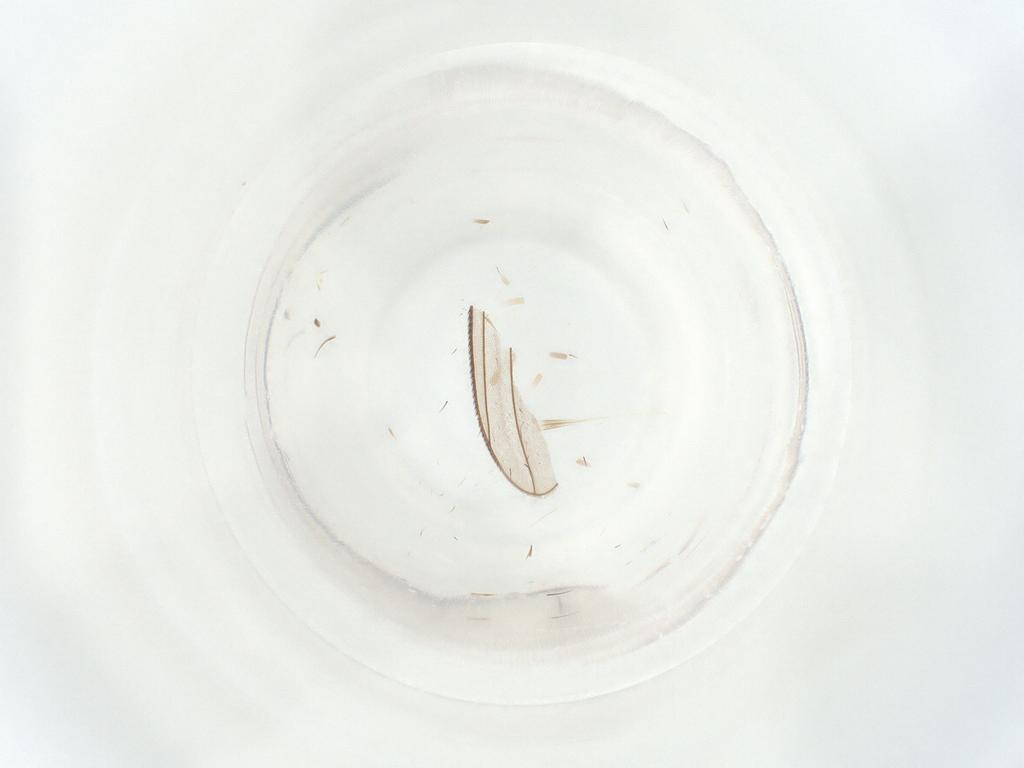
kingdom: Animalia
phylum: Arthropoda
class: Insecta
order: Diptera
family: Sciaridae
